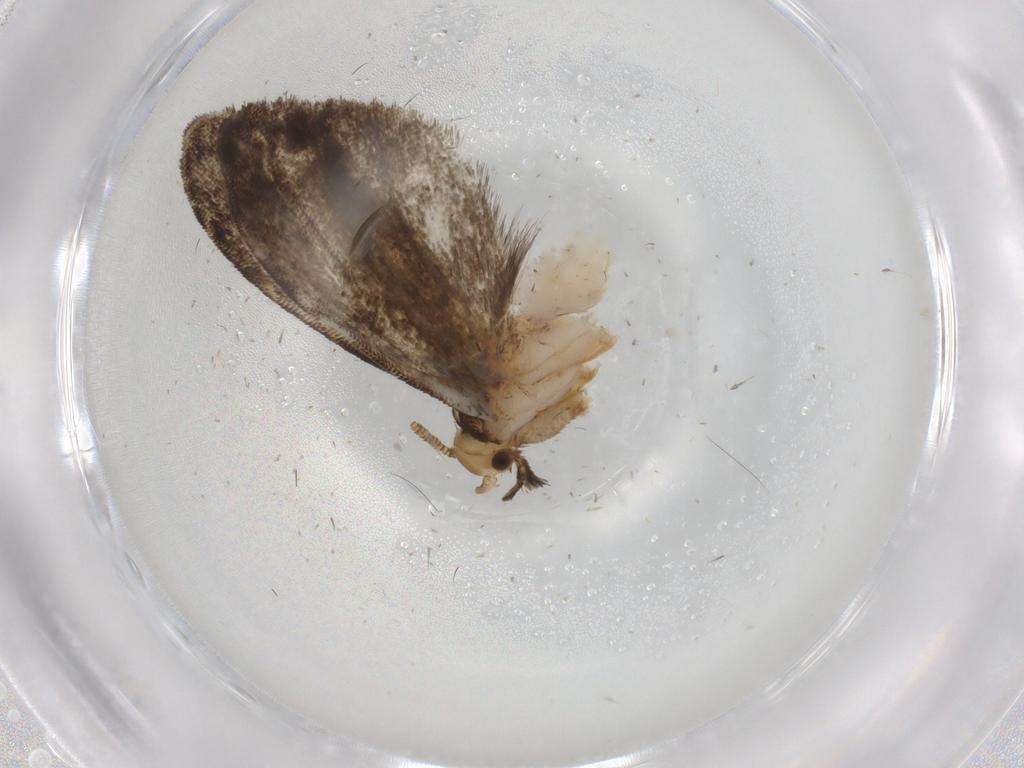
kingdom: Animalia
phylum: Arthropoda
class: Insecta
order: Lepidoptera
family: Dryadaulidae
